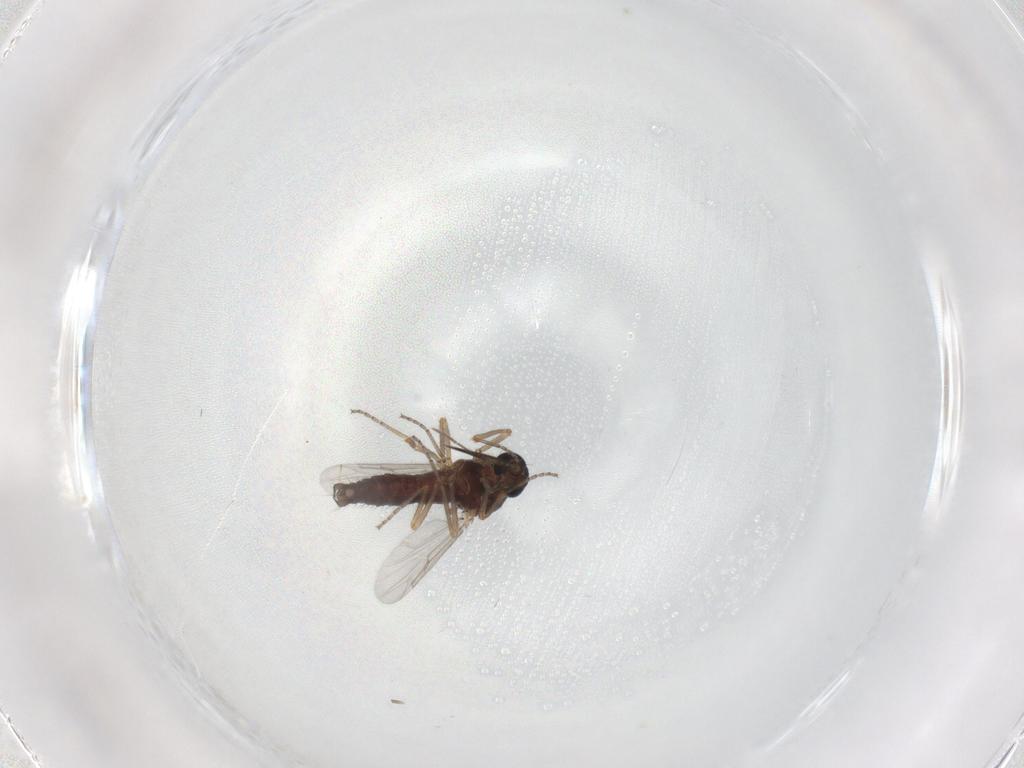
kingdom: Animalia
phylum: Arthropoda
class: Insecta
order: Diptera
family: Ceratopogonidae
